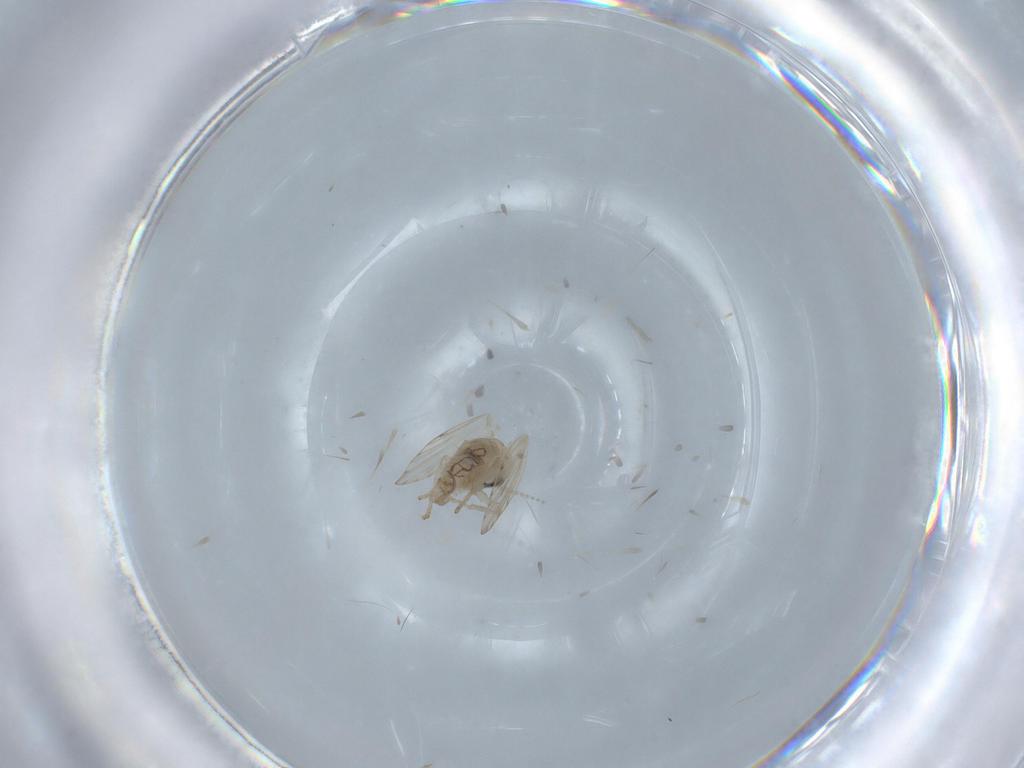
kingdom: Animalia
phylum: Arthropoda
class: Insecta
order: Diptera
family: Psychodidae
